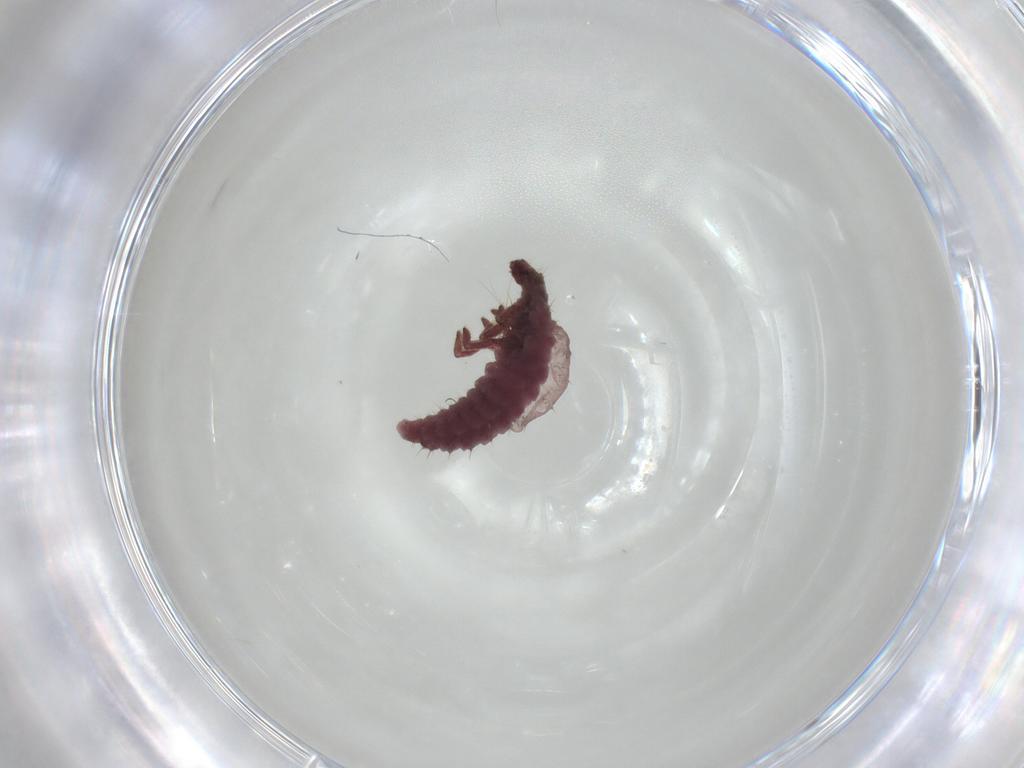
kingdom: Animalia
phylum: Arthropoda
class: Insecta
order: Coleoptera
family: Coccinellidae
